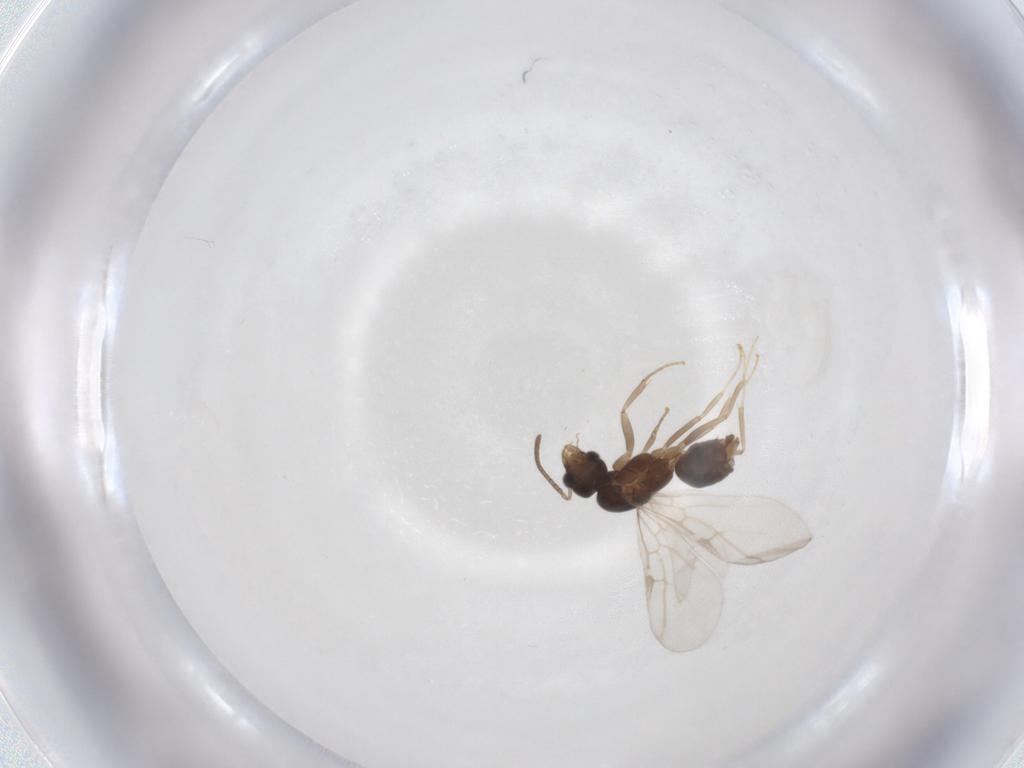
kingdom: Animalia
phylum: Arthropoda
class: Insecta
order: Hymenoptera
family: Formicidae
